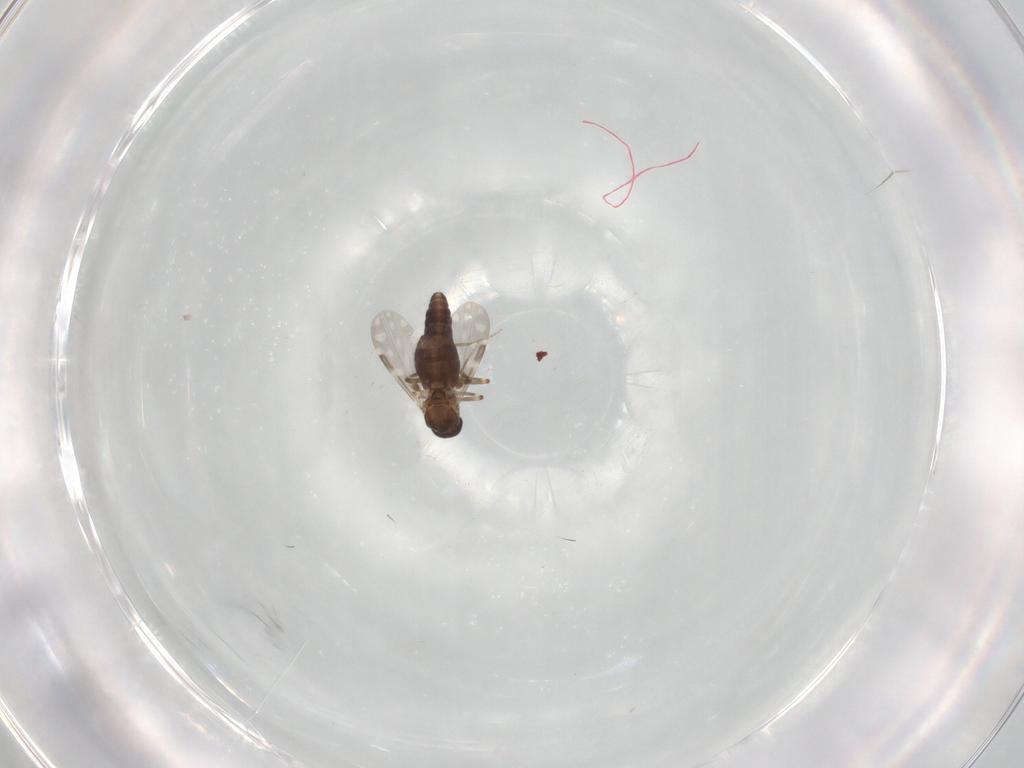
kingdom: Animalia
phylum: Arthropoda
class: Insecta
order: Diptera
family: Ceratopogonidae
